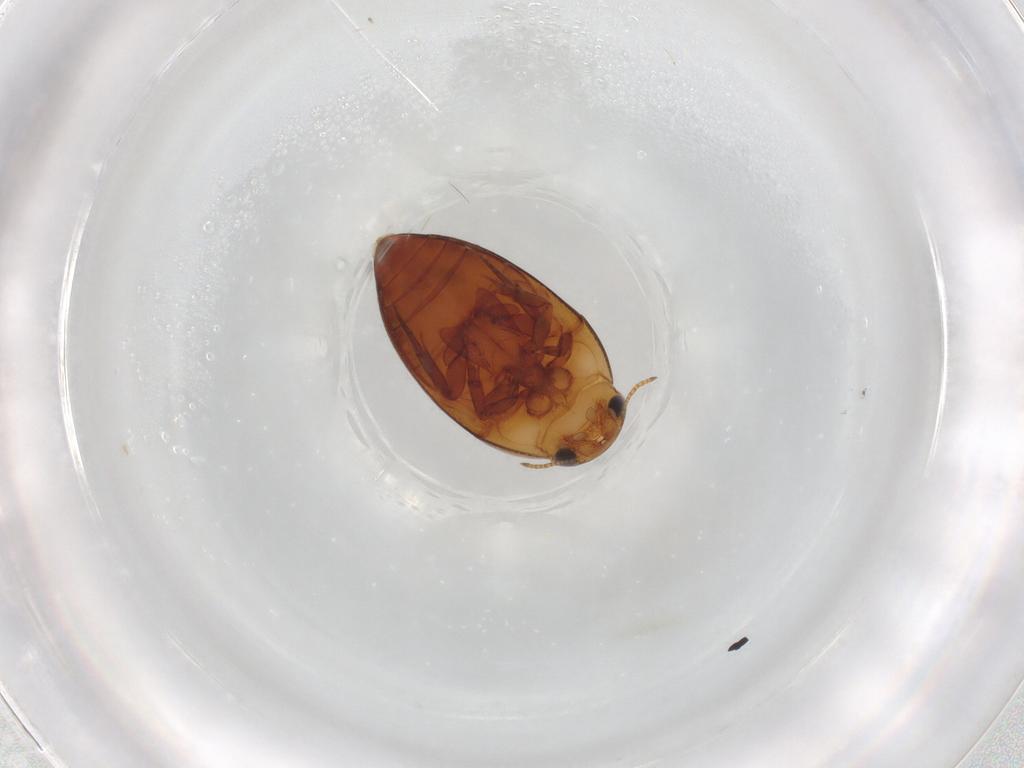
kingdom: Animalia
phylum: Arthropoda
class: Insecta
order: Coleoptera
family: Noteridae
